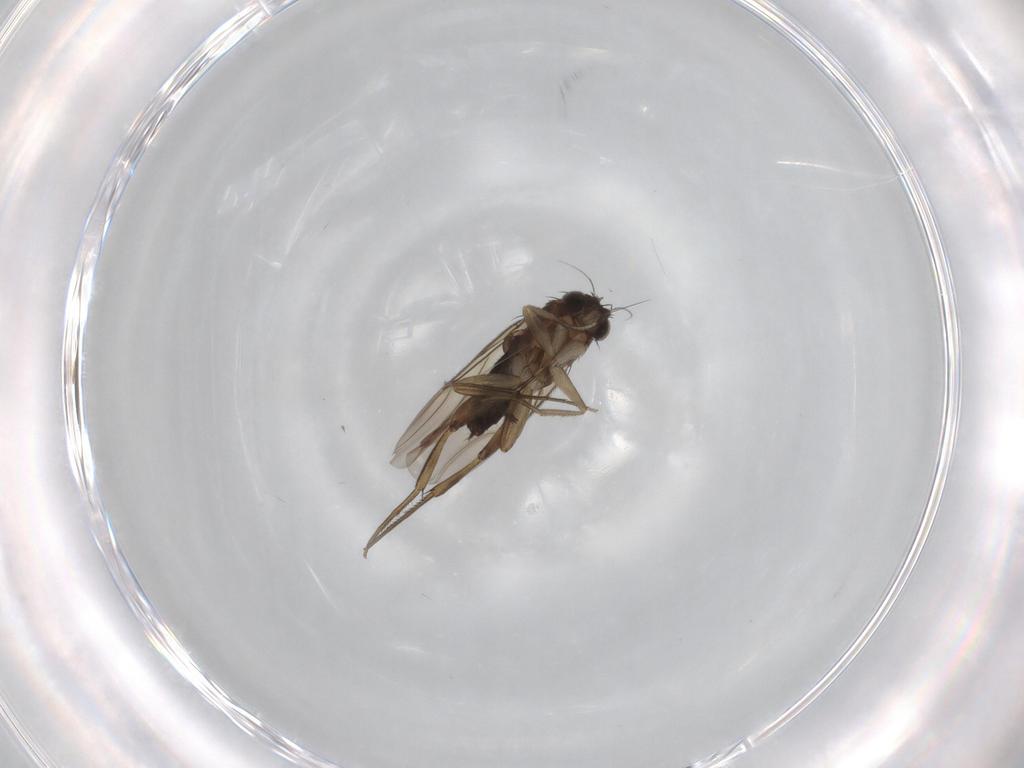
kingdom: Animalia
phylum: Arthropoda
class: Insecta
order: Diptera
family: Phoridae
